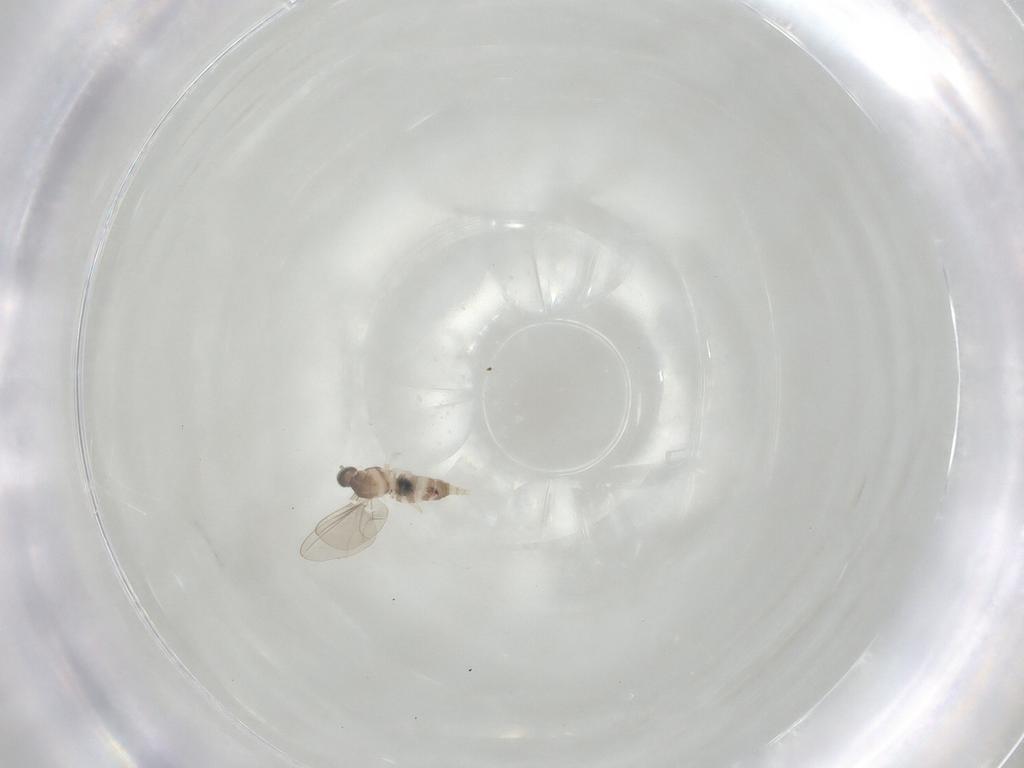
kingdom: Animalia
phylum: Arthropoda
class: Insecta
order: Diptera
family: Cecidomyiidae
